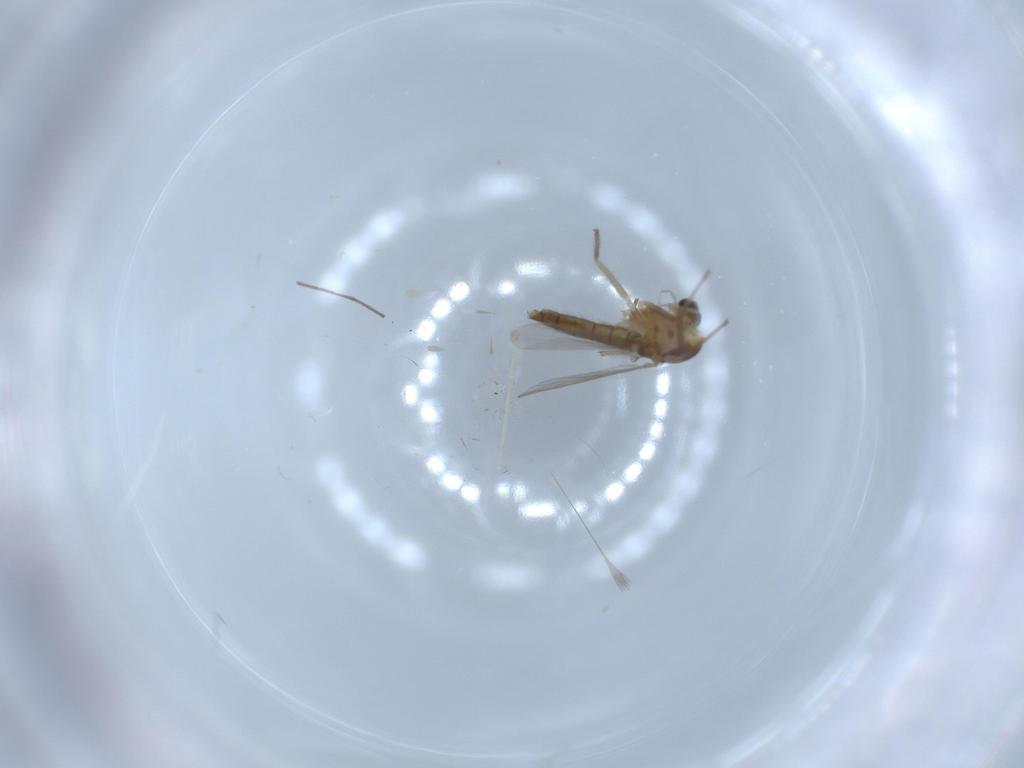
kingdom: Animalia
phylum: Arthropoda
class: Insecta
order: Diptera
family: Chironomidae
